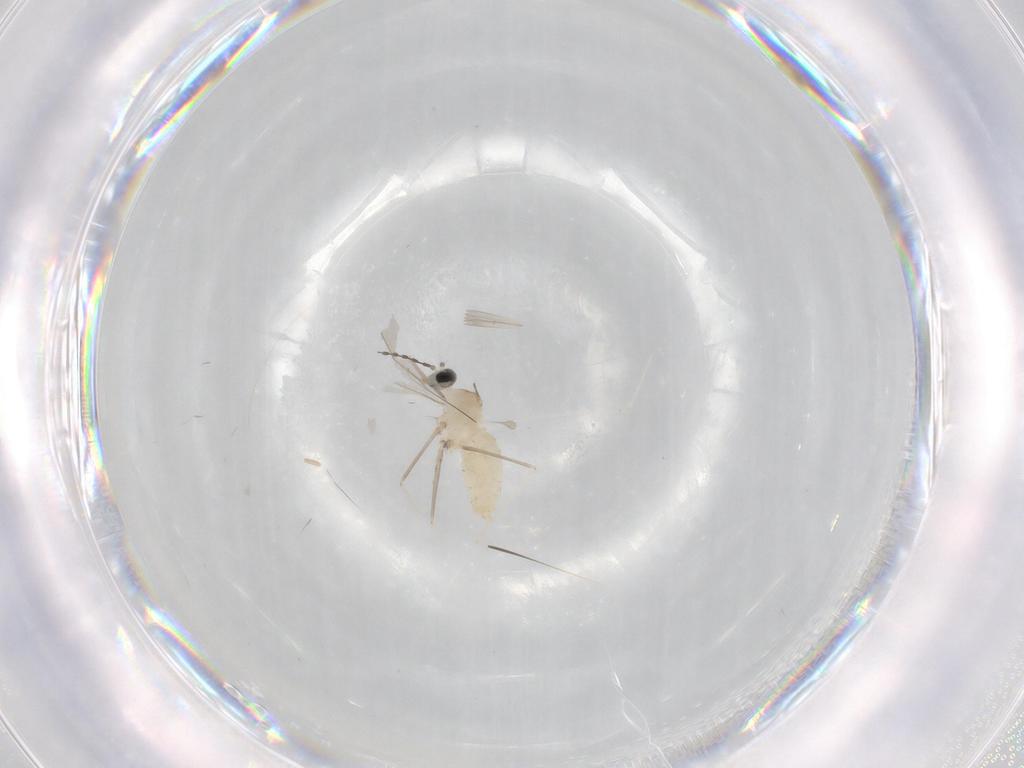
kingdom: Animalia
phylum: Arthropoda
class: Insecta
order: Diptera
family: Cecidomyiidae
